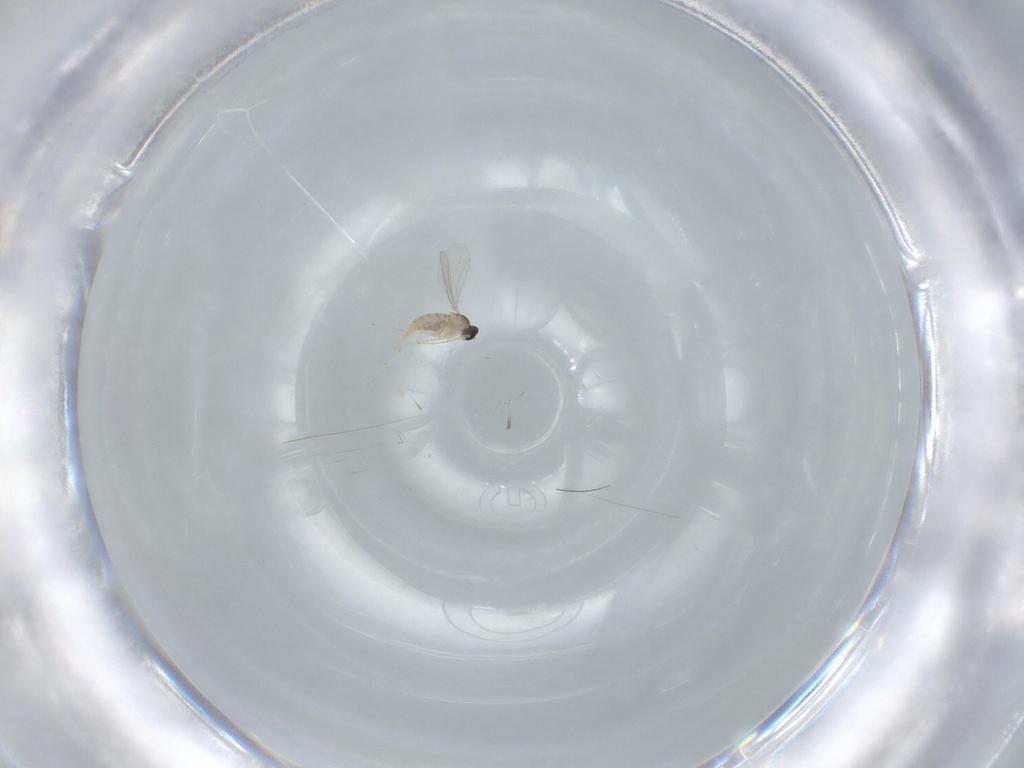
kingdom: Animalia
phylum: Arthropoda
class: Insecta
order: Diptera
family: Cecidomyiidae
